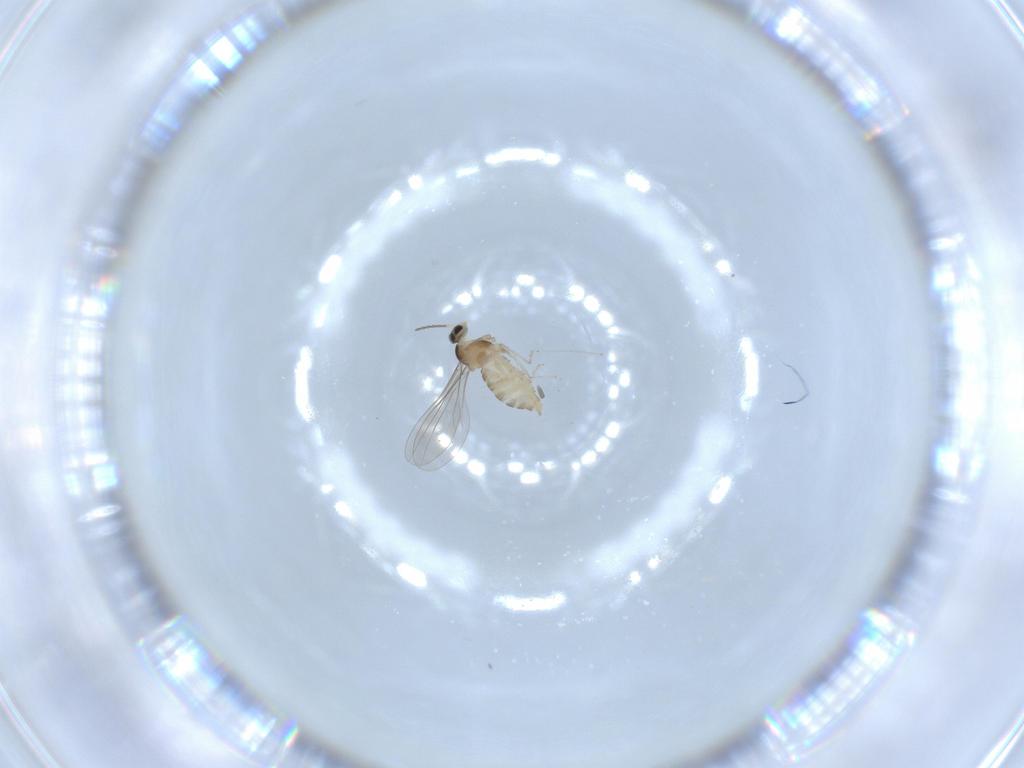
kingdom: Animalia
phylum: Arthropoda
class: Insecta
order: Diptera
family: Cecidomyiidae
